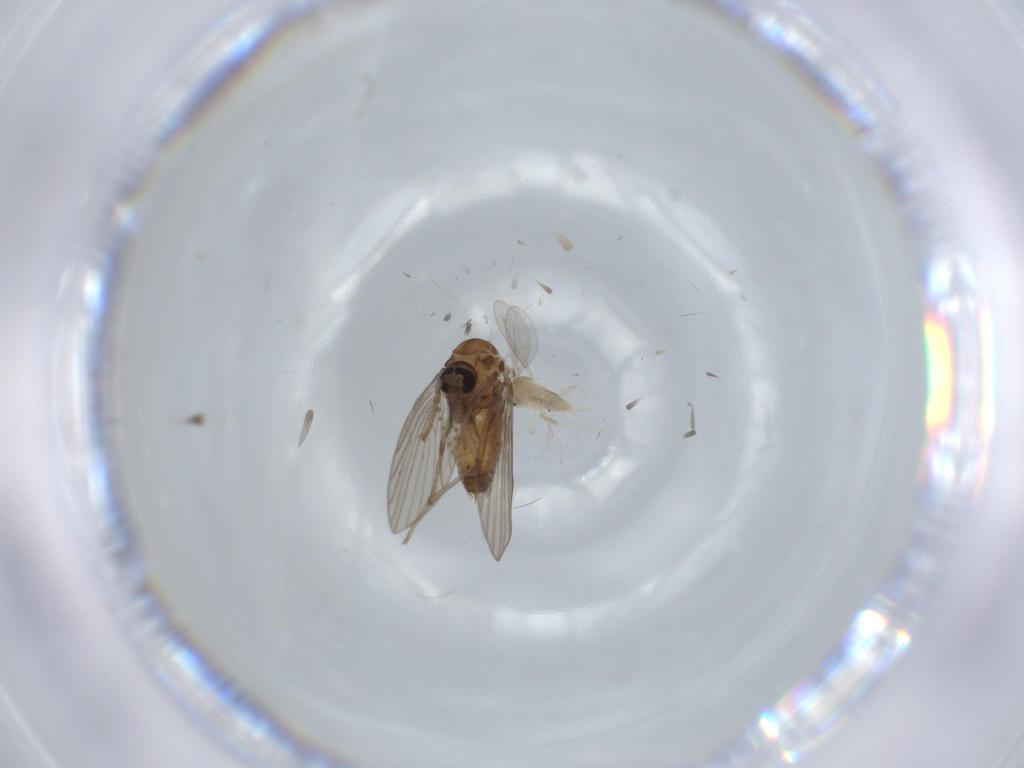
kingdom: Animalia
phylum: Arthropoda
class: Insecta
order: Diptera
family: Psychodidae
